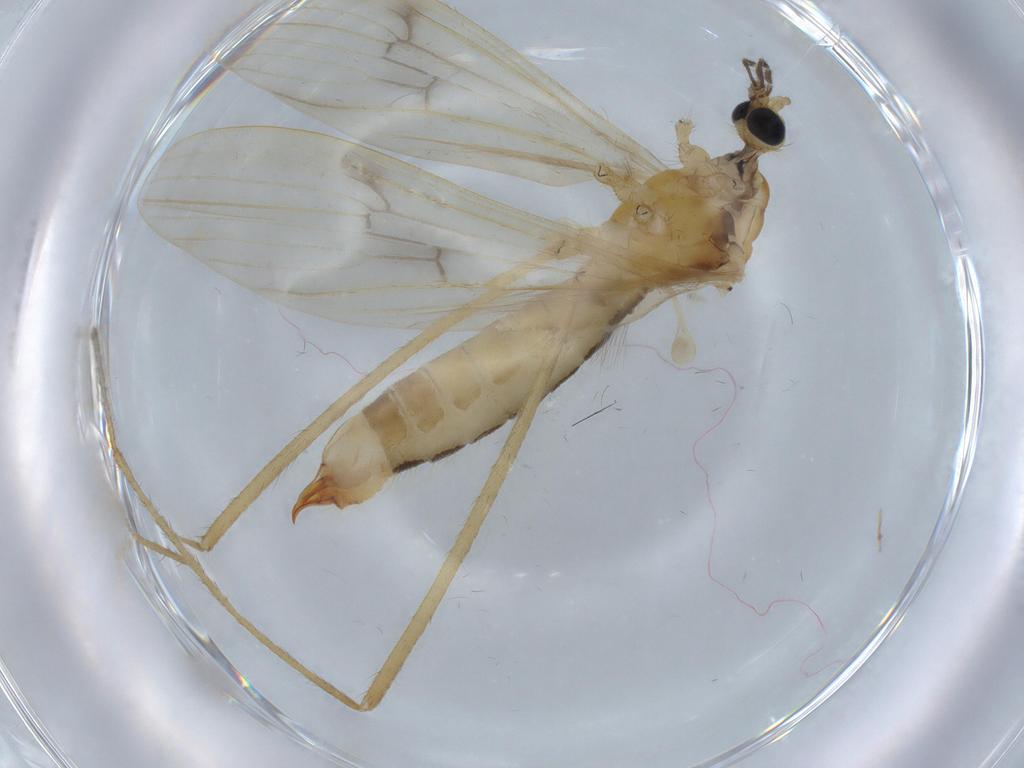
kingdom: Animalia
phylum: Arthropoda
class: Insecta
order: Diptera
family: Limoniidae
